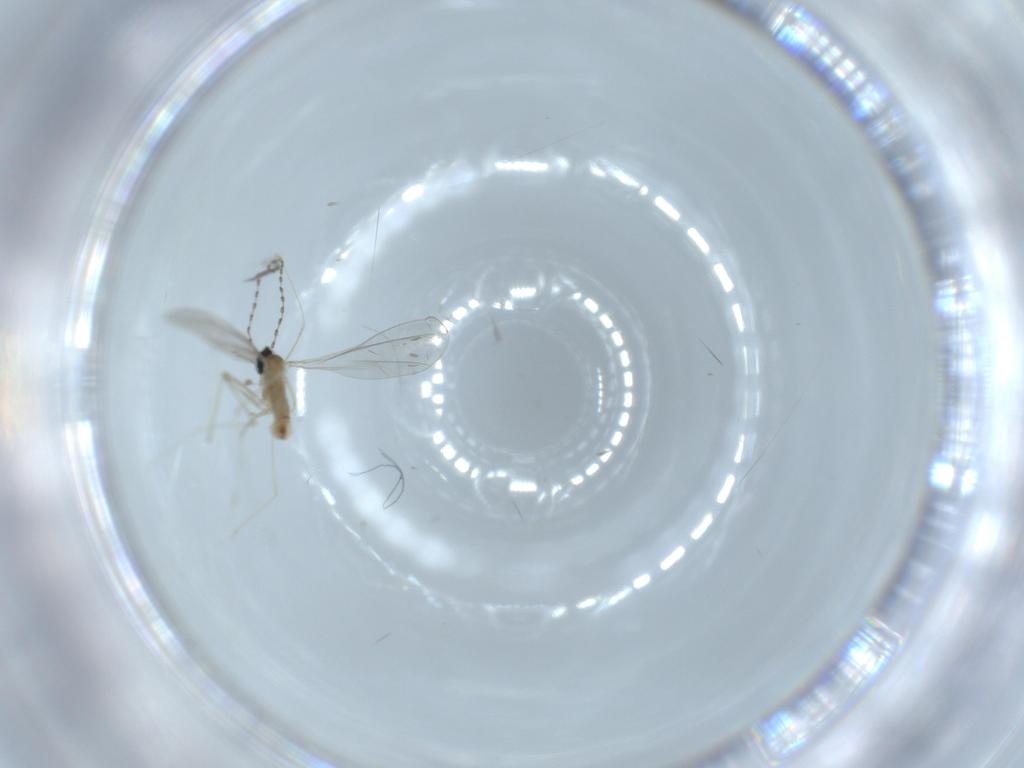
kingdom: Animalia
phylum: Arthropoda
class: Insecta
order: Diptera
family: Cecidomyiidae
